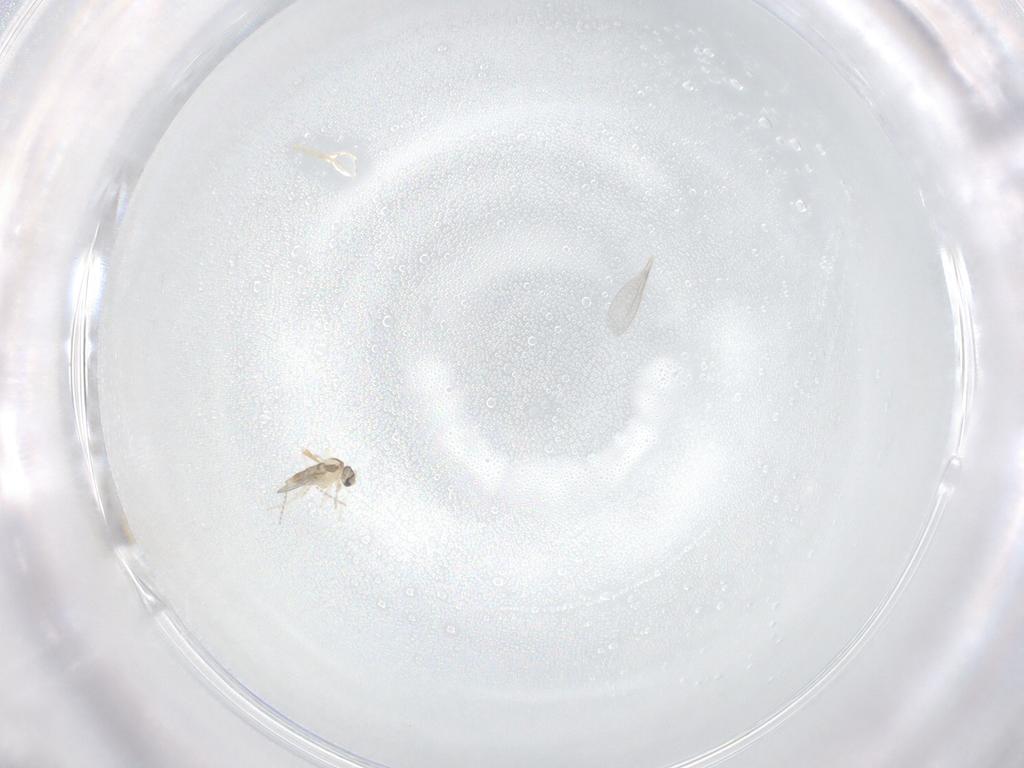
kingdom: Animalia
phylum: Arthropoda
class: Insecta
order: Diptera
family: Cecidomyiidae
